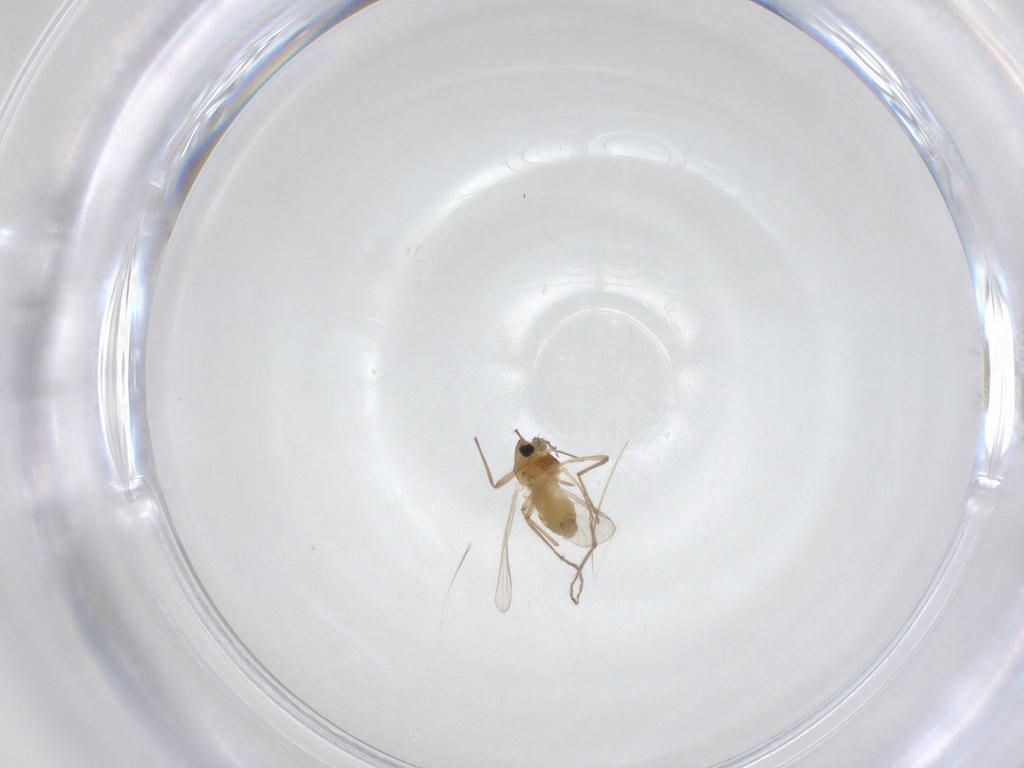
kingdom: Animalia
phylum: Arthropoda
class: Insecta
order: Diptera
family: Chironomidae
